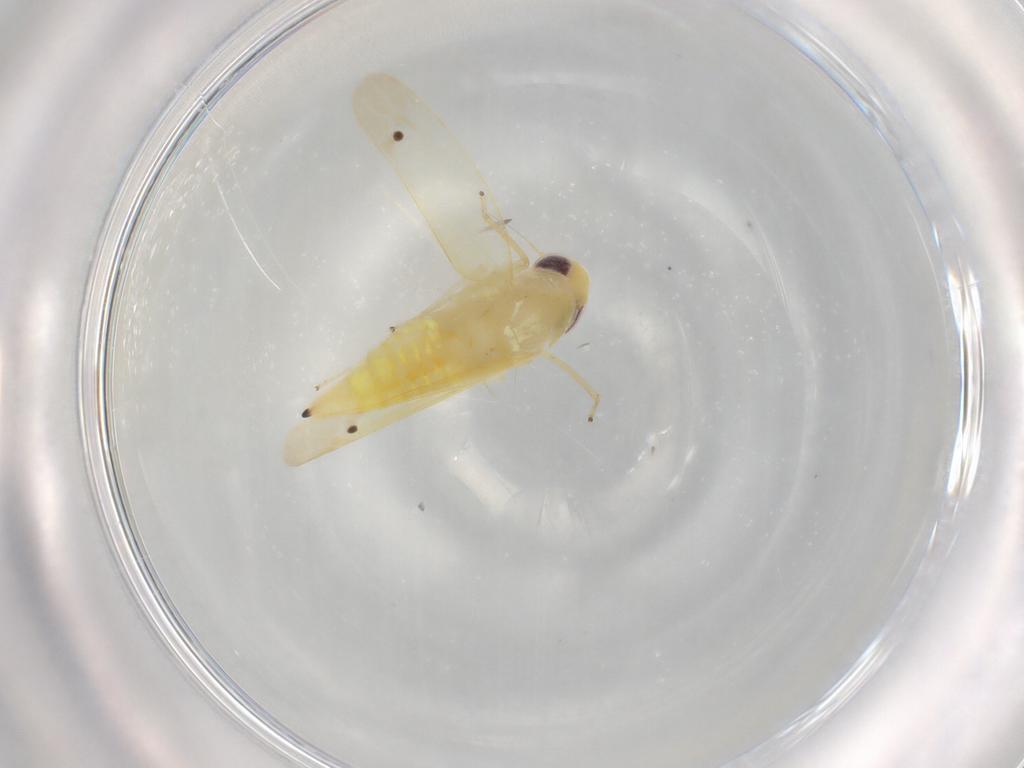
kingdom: Animalia
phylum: Arthropoda
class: Insecta
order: Hemiptera
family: Cicadellidae
